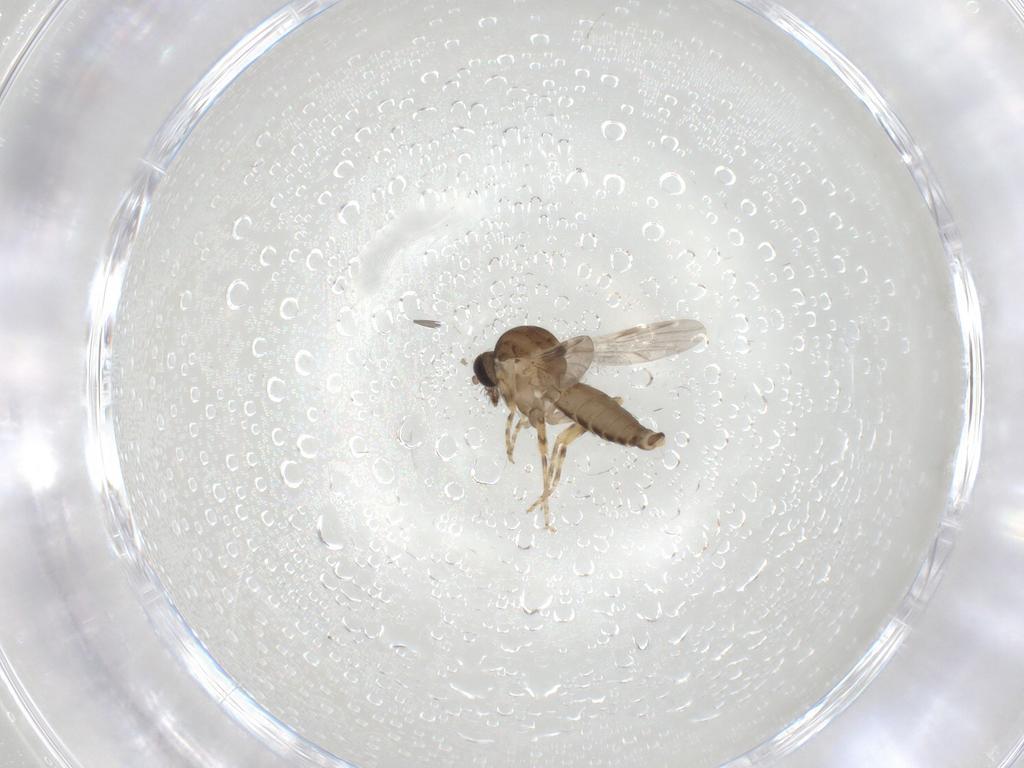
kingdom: Animalia
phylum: Arthropoda
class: Insecta
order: Diptera
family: Ceratopogonidae
